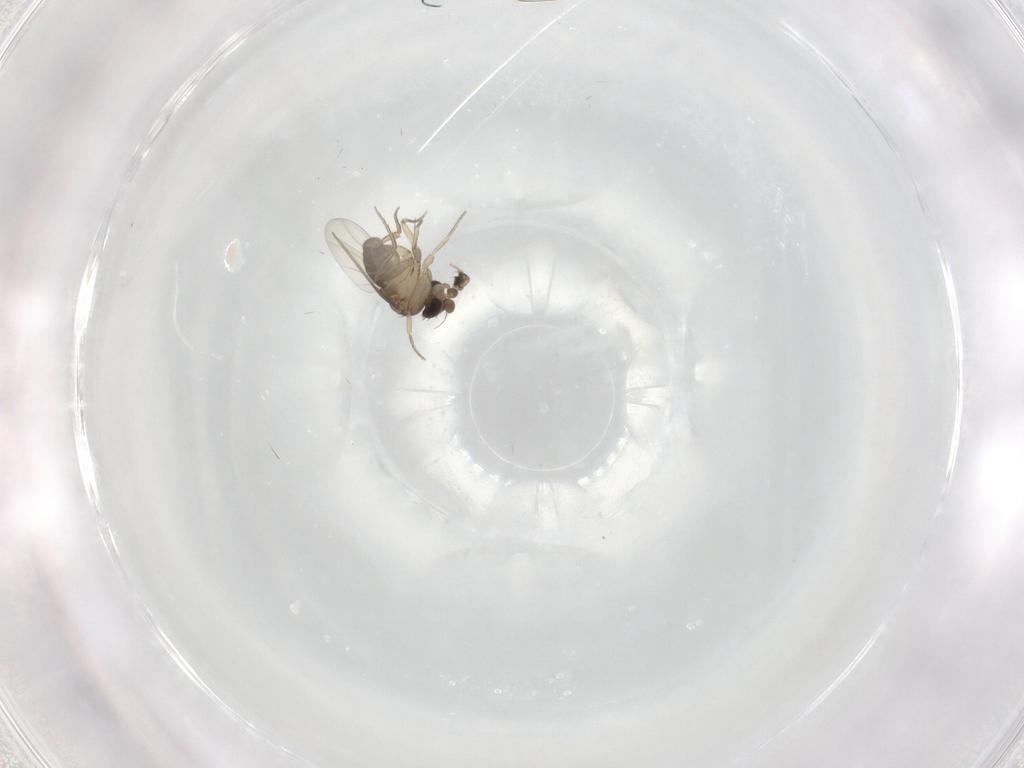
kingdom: Animalia
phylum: Arthropoda
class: Insecta
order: Diptera
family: Phoridae
